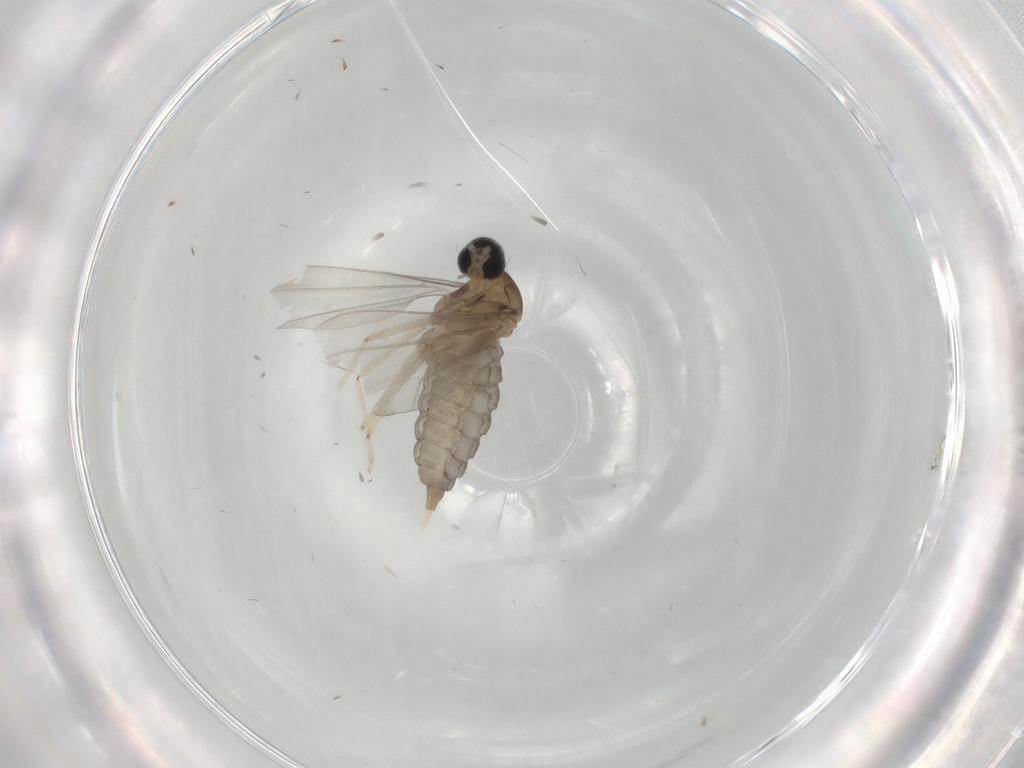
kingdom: Animalia
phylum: Arthropoda
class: Insecta
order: Diptera
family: Cecidomyiidae
